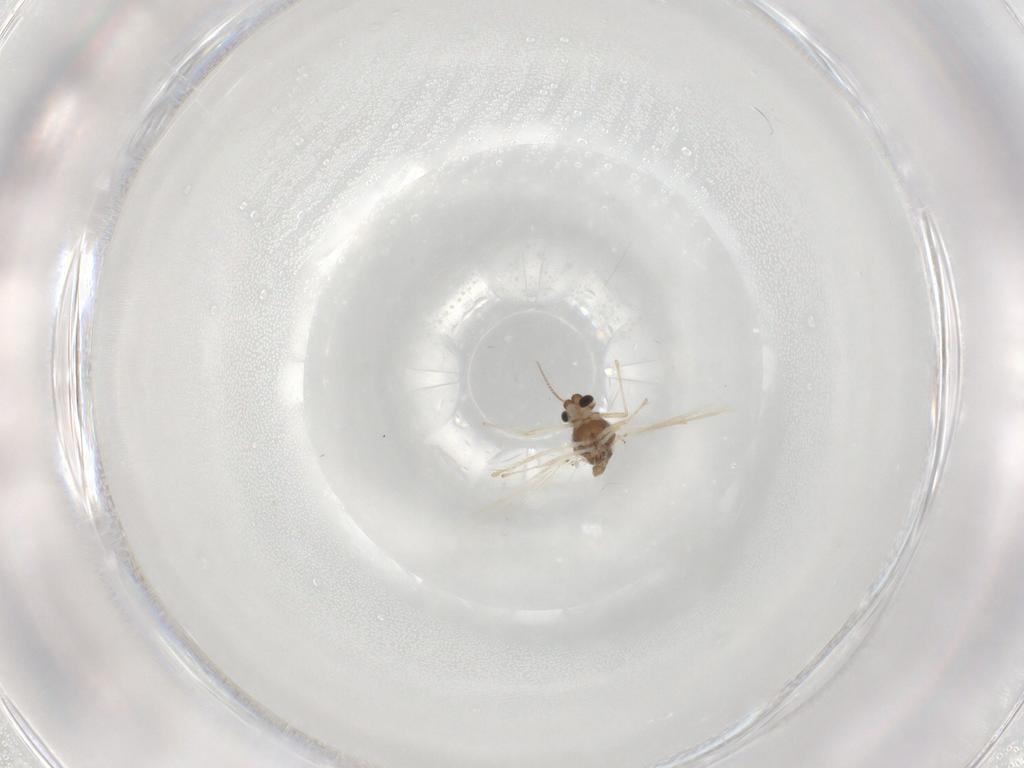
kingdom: Animalia
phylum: Arthropoda
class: Insecta
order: Diptera
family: Chironomidae
